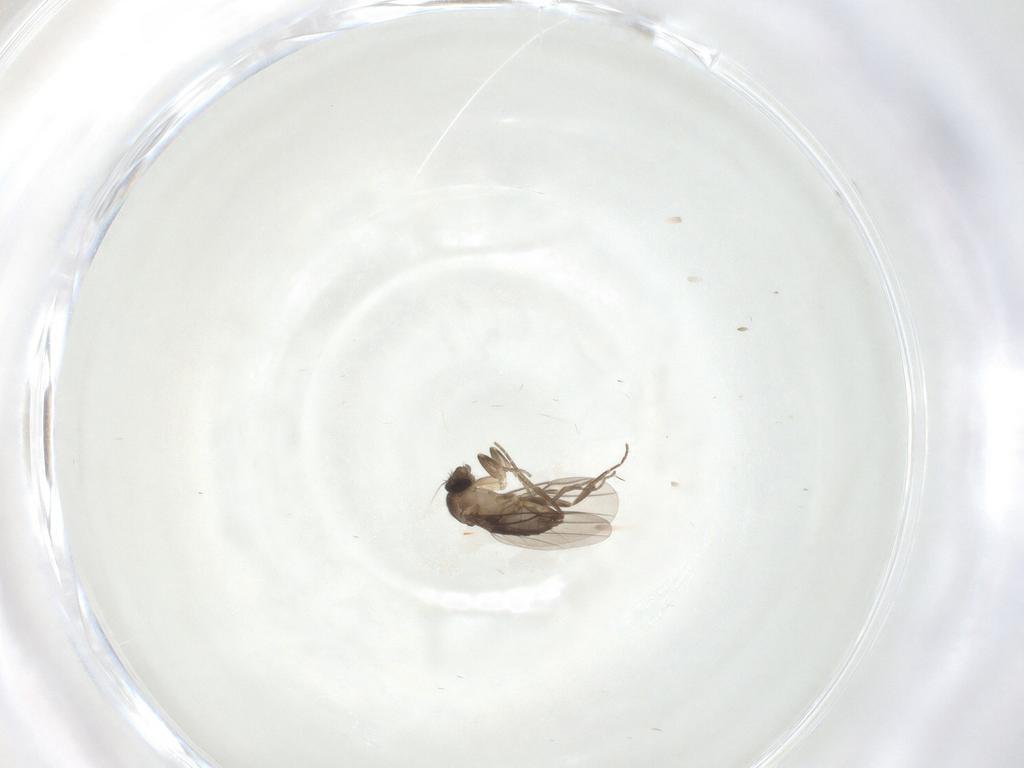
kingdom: Animalia
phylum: Arthropoda
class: Insecta
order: Diptera
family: Phoridae
